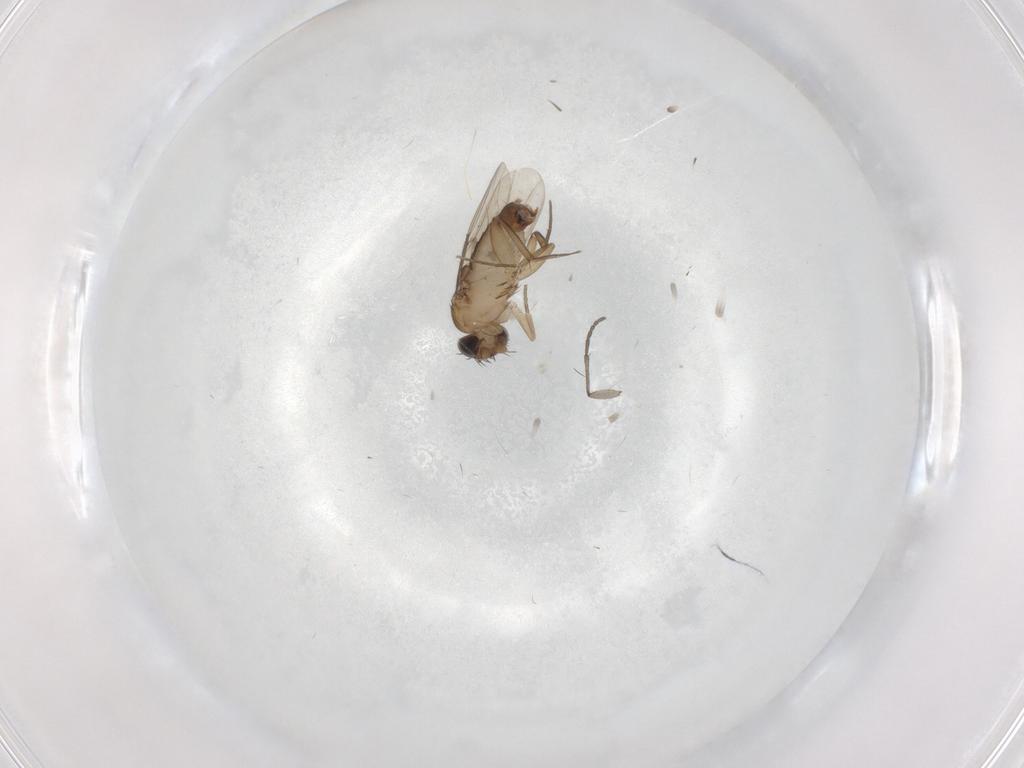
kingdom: Animalia
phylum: Arthropoda
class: Insecta
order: Diptera
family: Sciaridae
